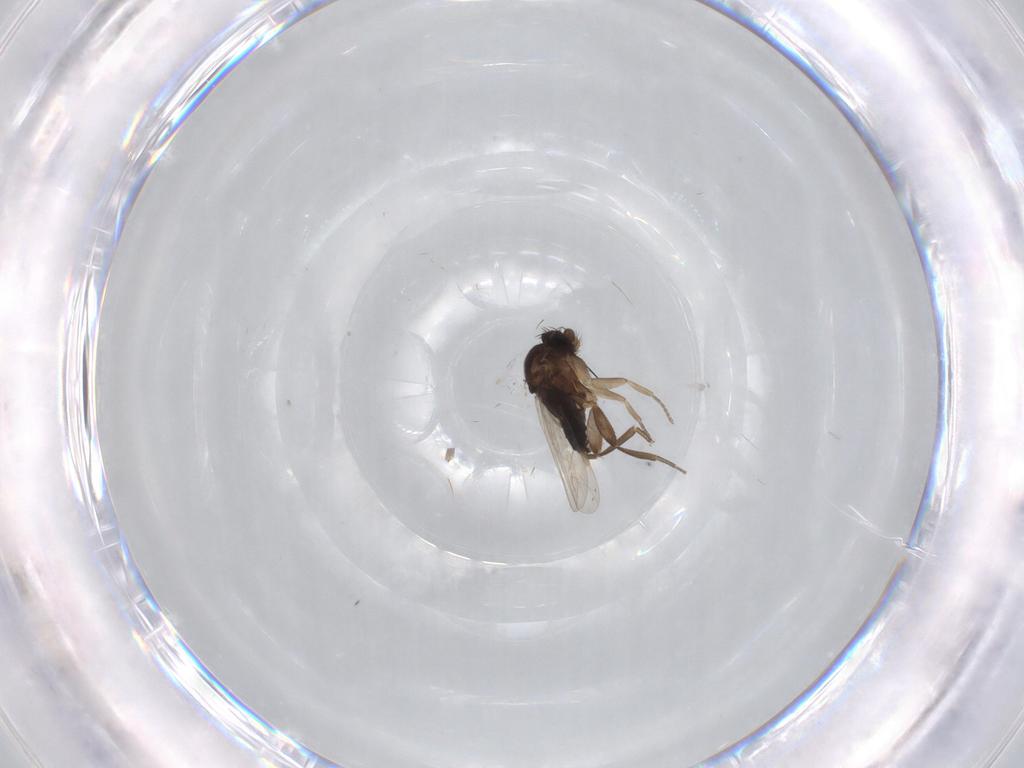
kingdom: Animalia
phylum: Arthropoda
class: Insecta
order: Diptera
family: Phoridae
